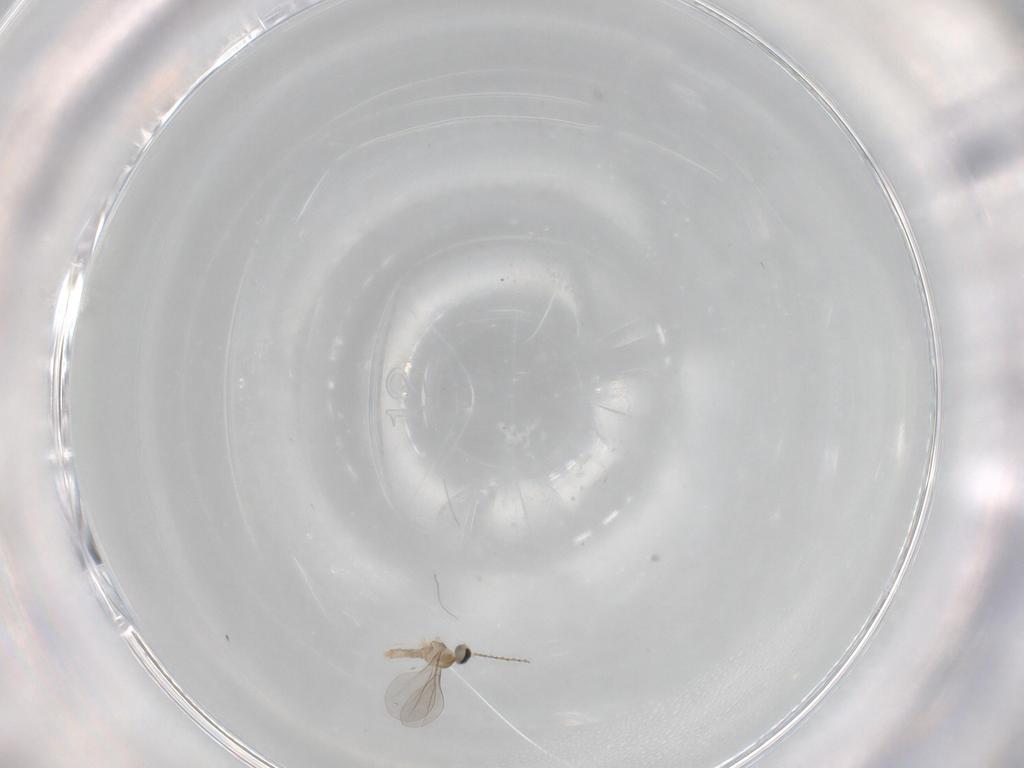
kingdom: Animalia
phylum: Arthropoda
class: Insecta
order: Diptera
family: Cecidomyiidae
